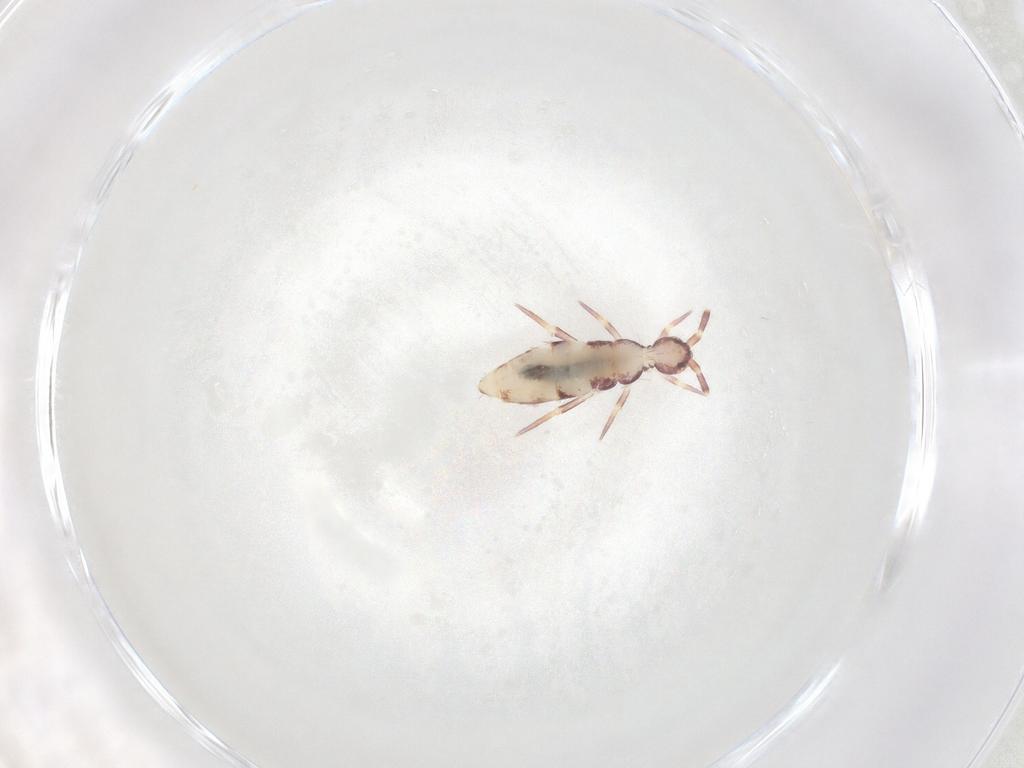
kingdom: Animalia
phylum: Arthropoda
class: Collembola
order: Entomobryomorpha
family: Entomobryidae
